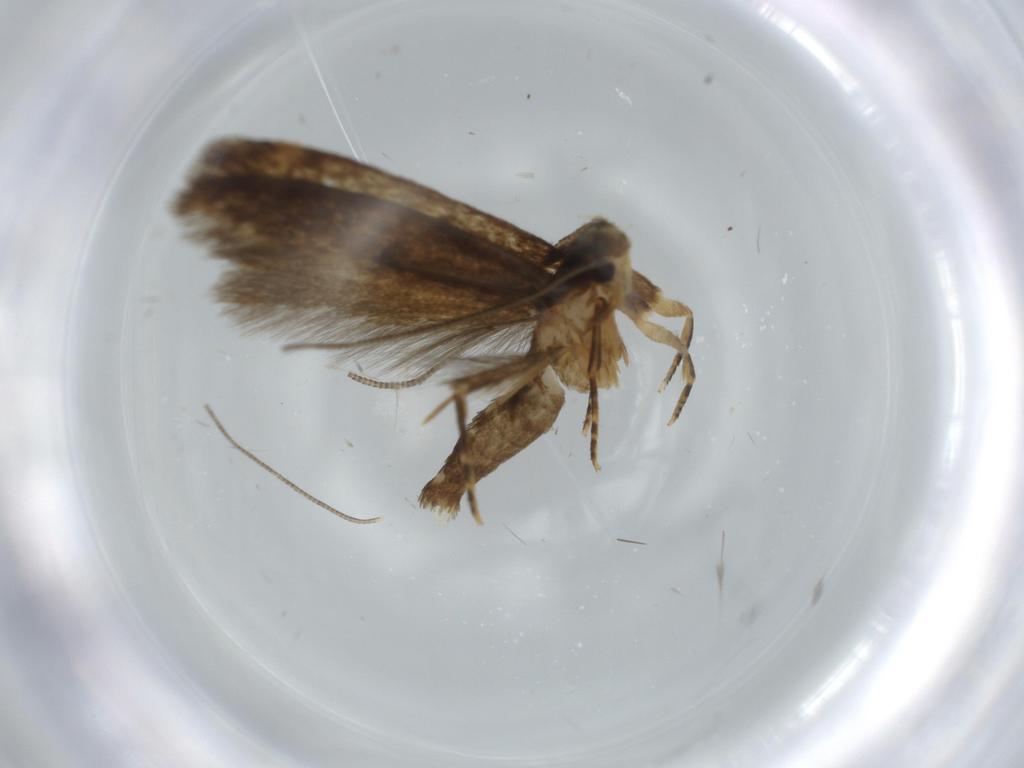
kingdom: Animalia
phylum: Arthropoda
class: Insecta
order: Lepidoptera
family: Tineidae
